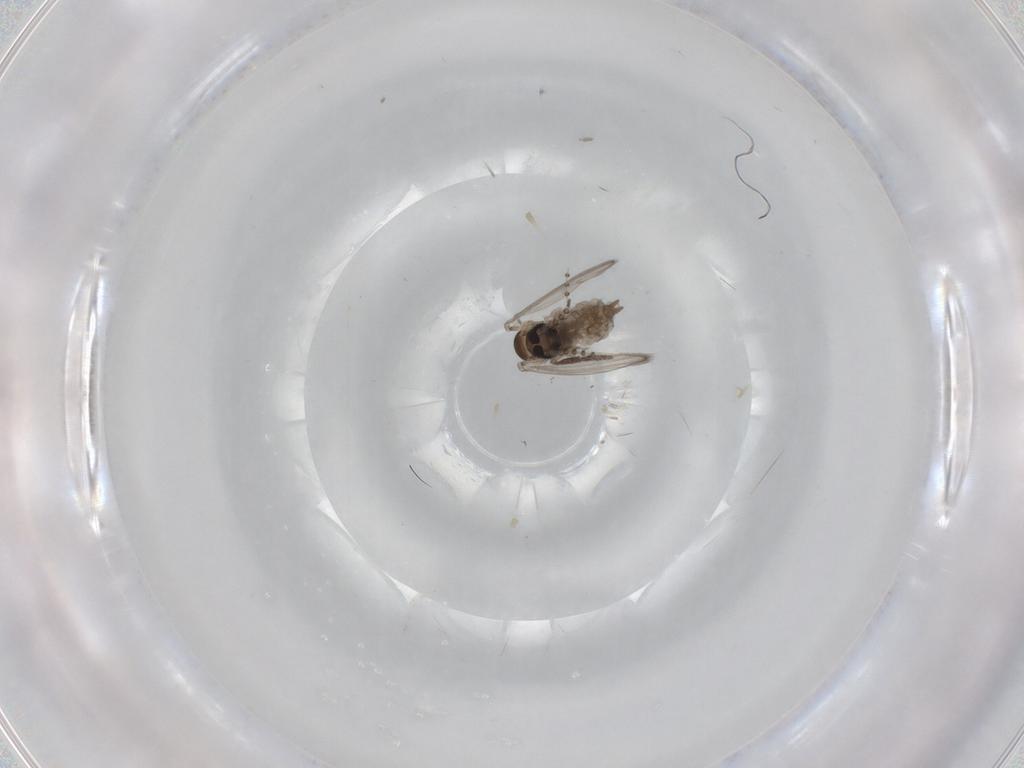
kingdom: Animalia
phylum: Arthropoda
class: Insecta
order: Diptera
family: Psychodidae
